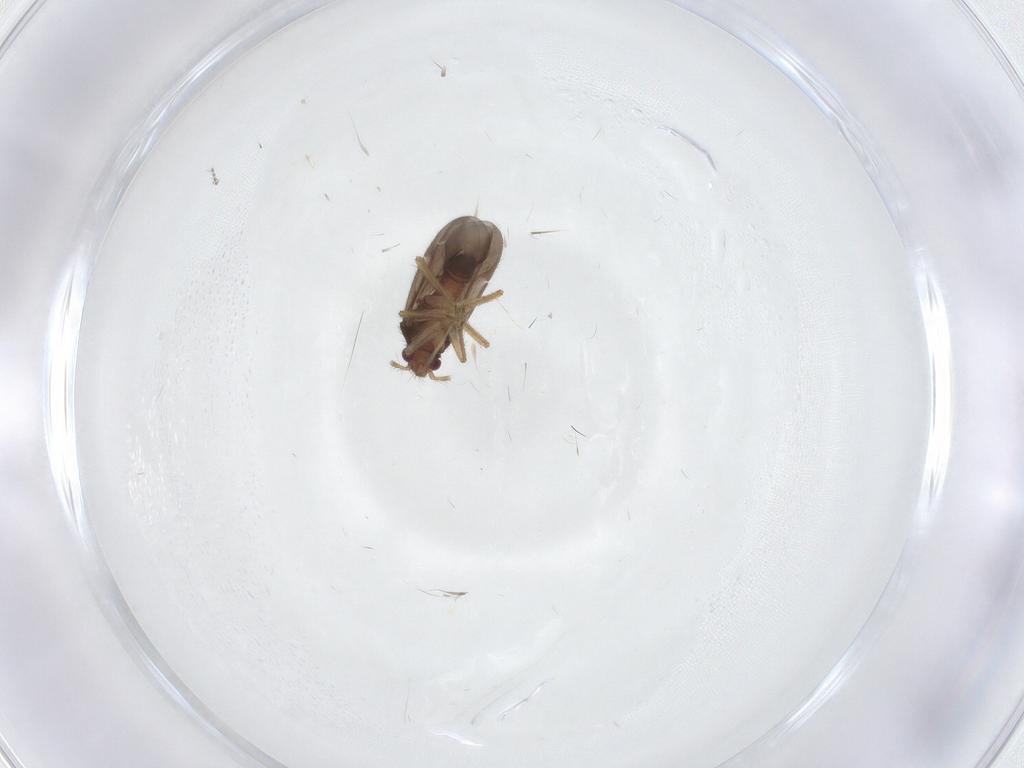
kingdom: Animalia
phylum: Arthropoda
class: Insecta
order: Hemiptera
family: Ceratocombidae
